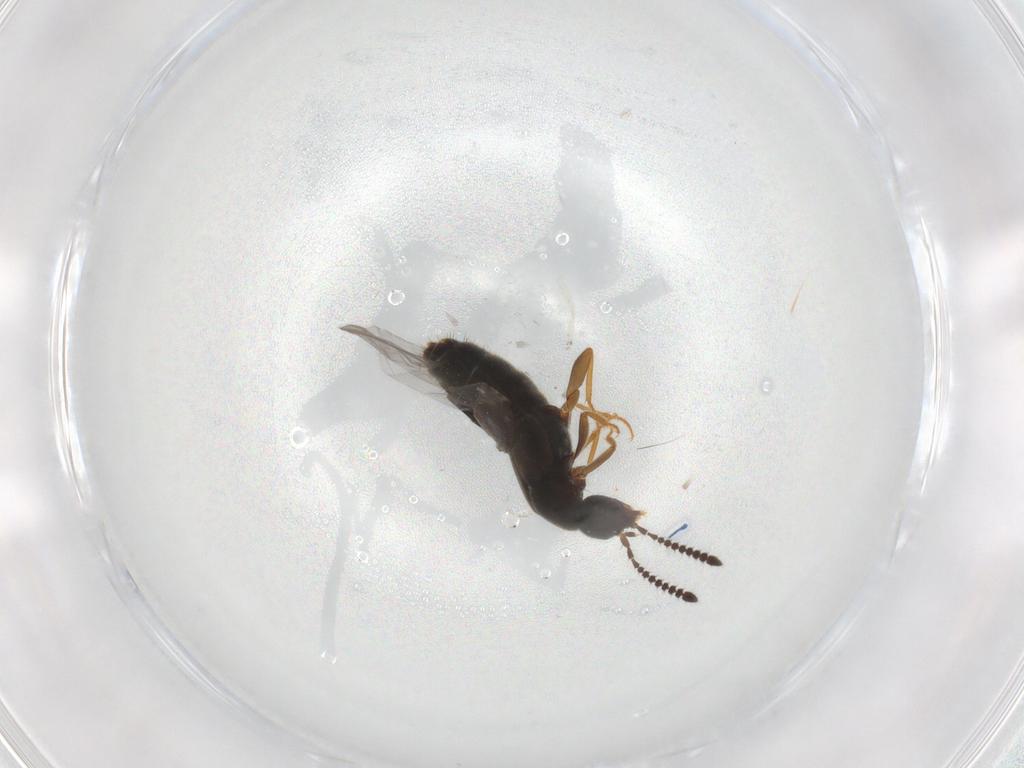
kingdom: Animalia
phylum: Arthropoda
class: Insecta
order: Coleoptera
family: Staphylinidae
